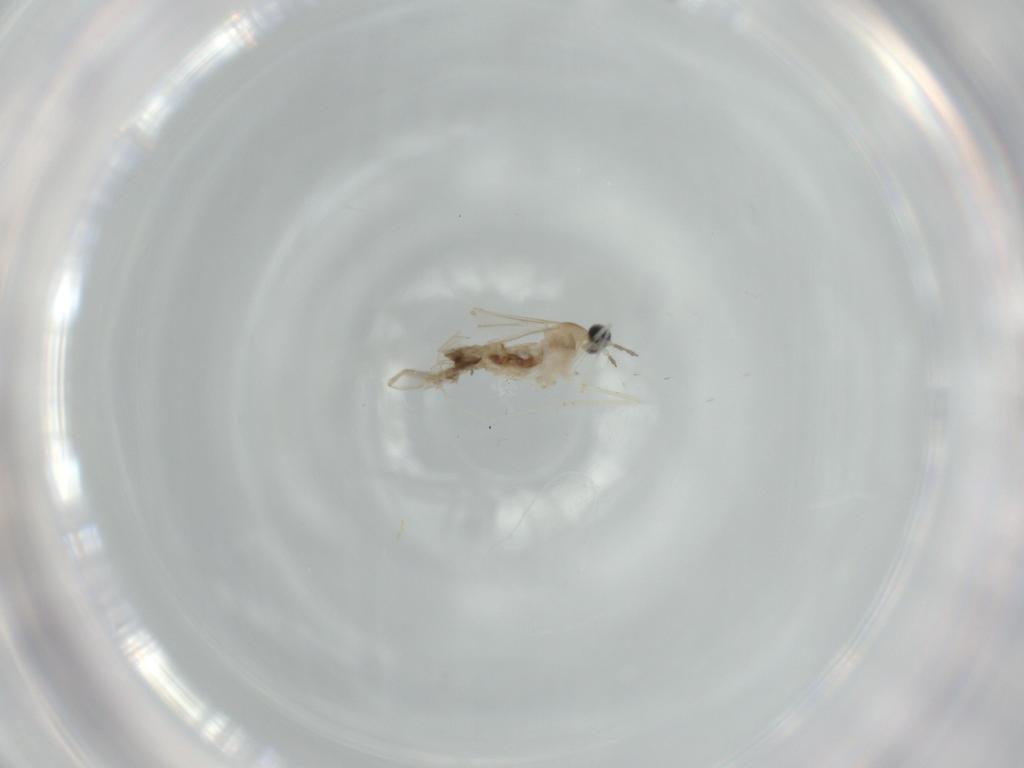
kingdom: Animalia
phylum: Arthropoda
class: Insecta
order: Diptera
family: Cecidomyiidae
